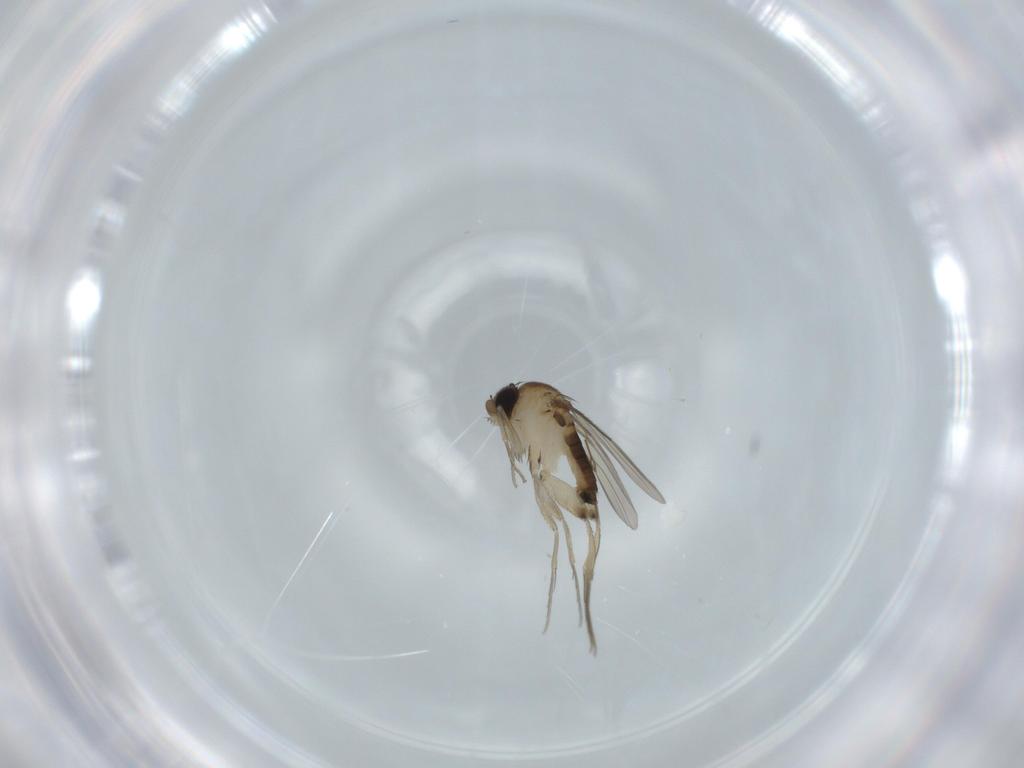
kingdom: Animalia
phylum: Arthropoda
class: Insecta
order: Diptera
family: Phoridae
